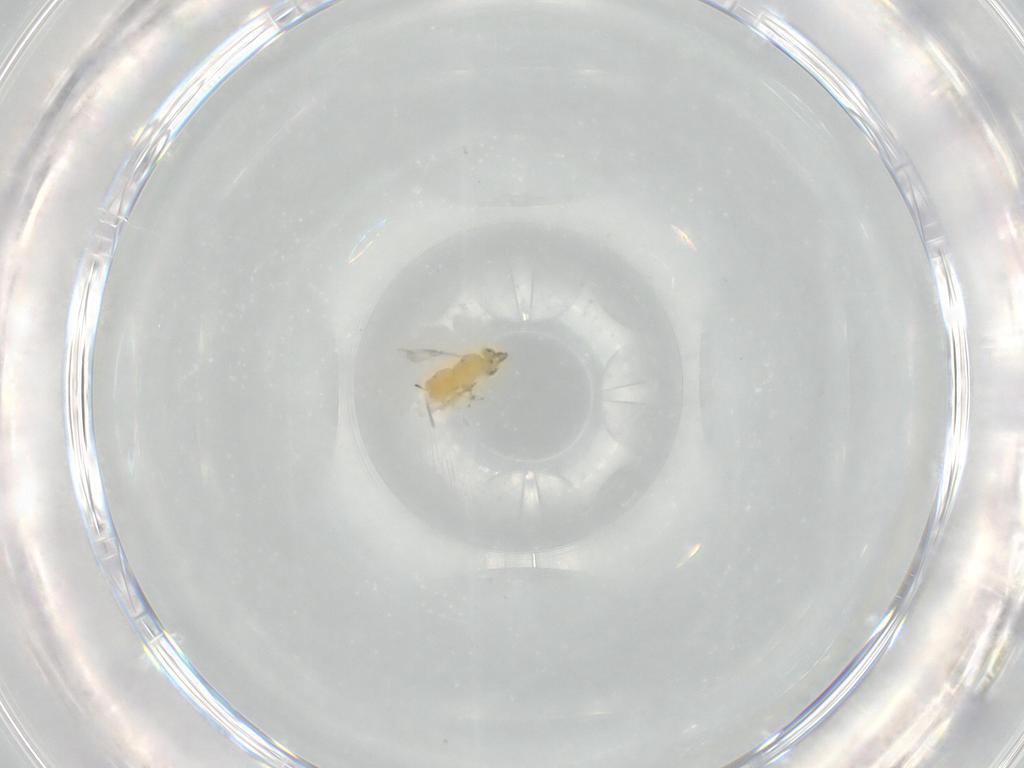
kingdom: Animalia
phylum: Arthropoda
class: Insecta
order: Hymenoptera
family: Encyrtidae
